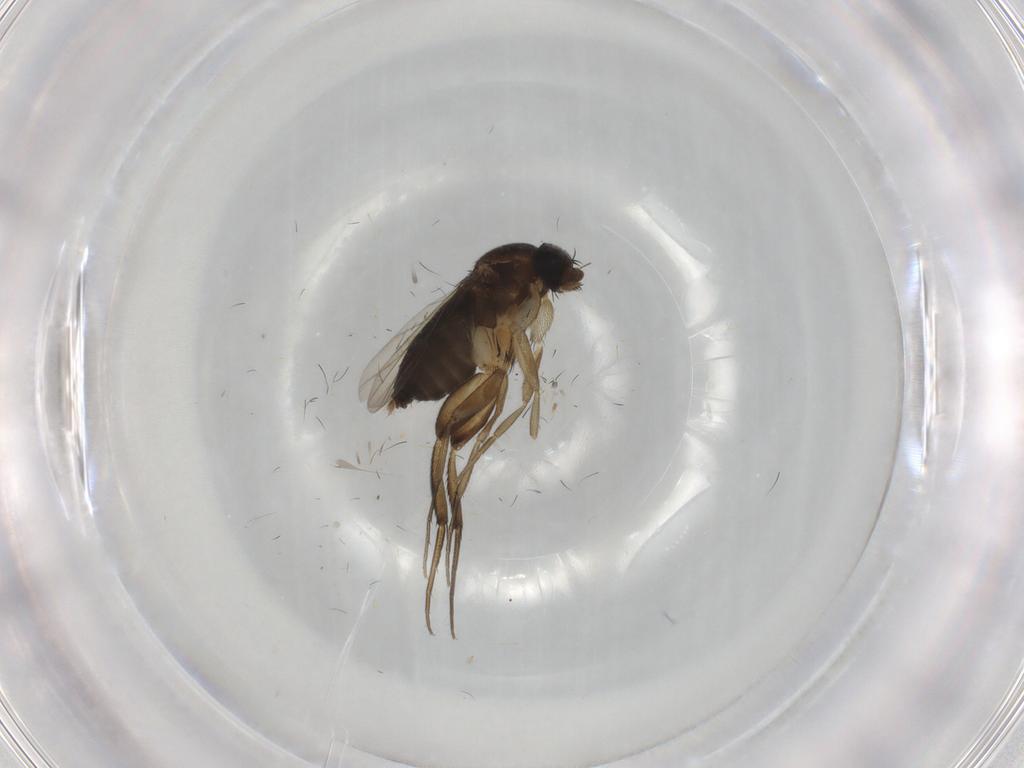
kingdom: Animalia
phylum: Arthropoda
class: Insecta
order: Diptera
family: Phoridae
